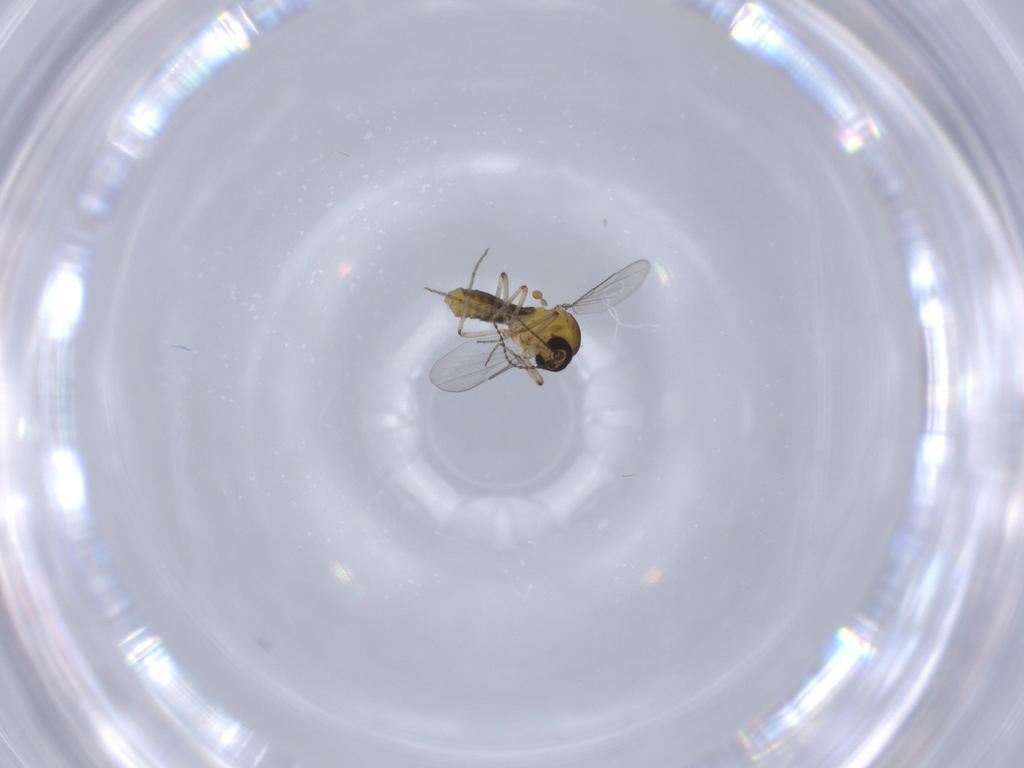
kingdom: Animalia
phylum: Arthropoda
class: Insecta
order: Diptera
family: Ceratopogonidae
